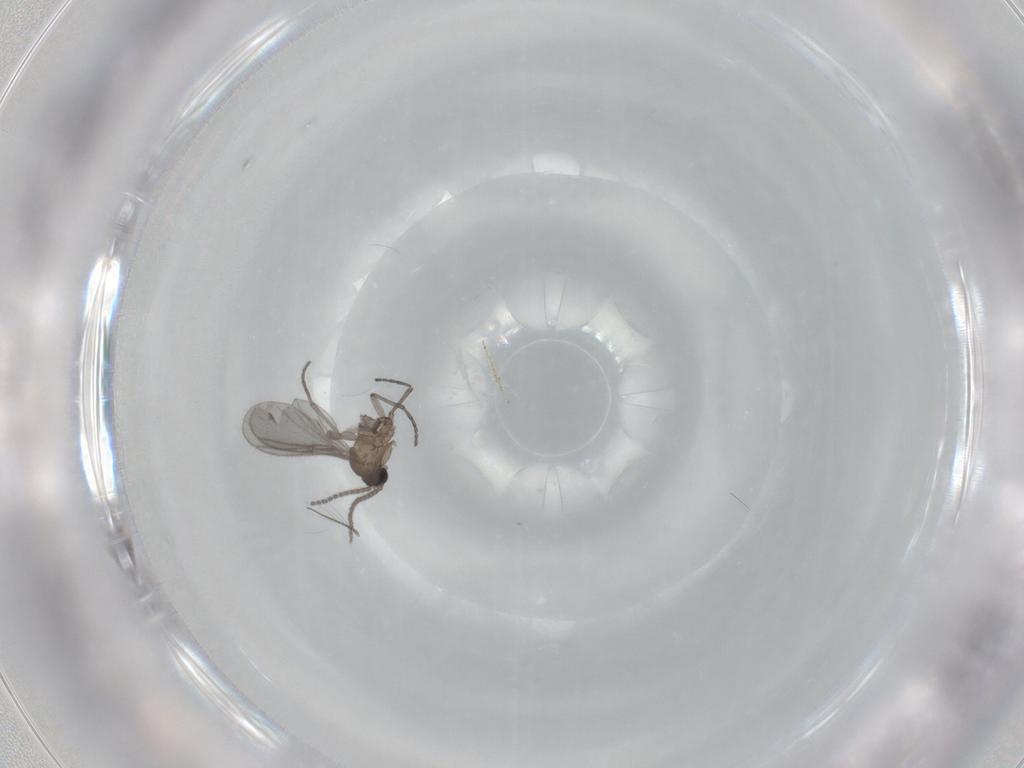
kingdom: Animalia
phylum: Arthropoda
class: Insecta
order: Diptera
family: Sciaridae
